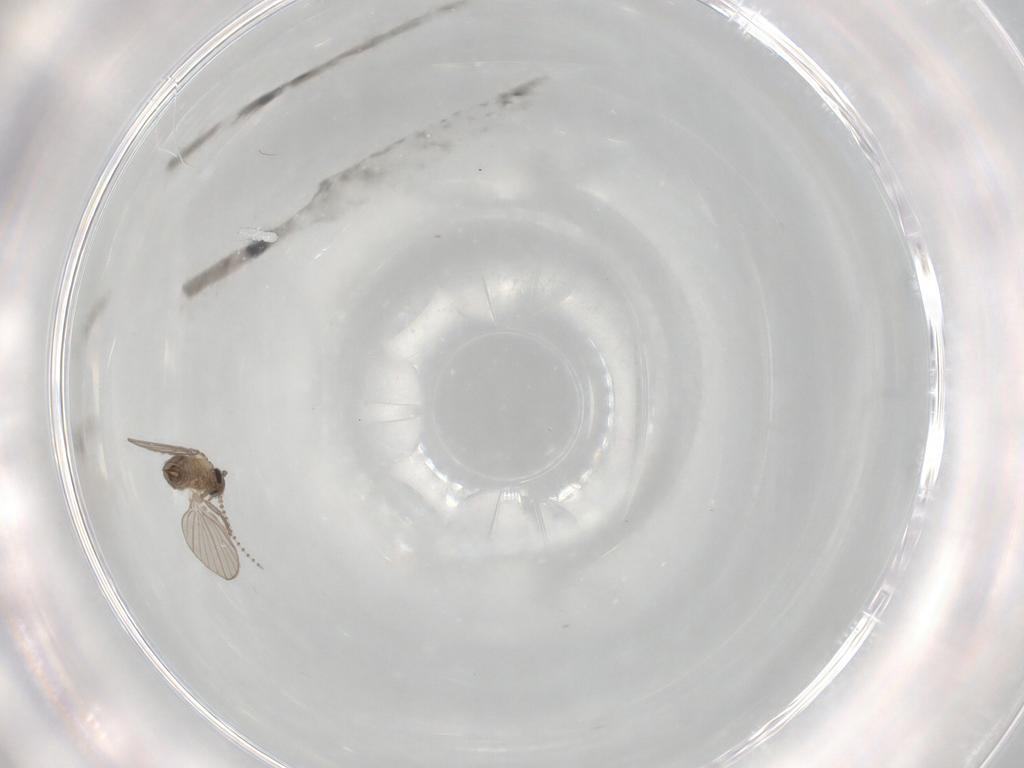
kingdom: Animalia
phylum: Arthropoda
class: Insecta
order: Diptera
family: Psychodidae
